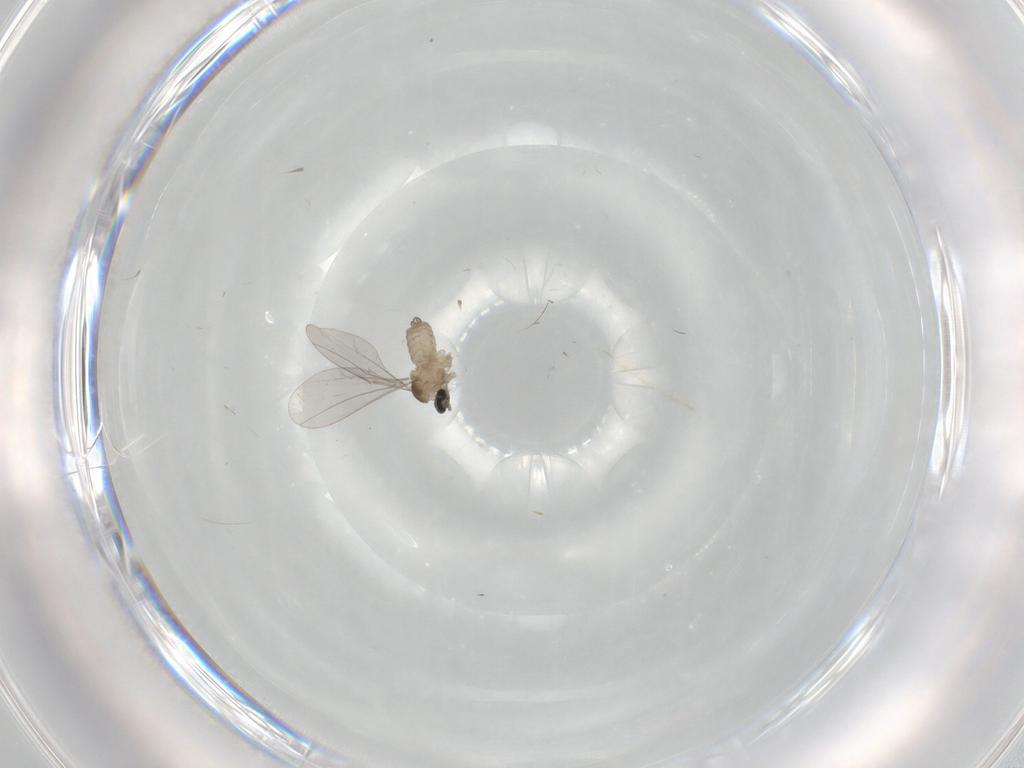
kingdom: Animalia
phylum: Arthropoda
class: Insecta
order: Diptera
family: Cecidomyiidae
